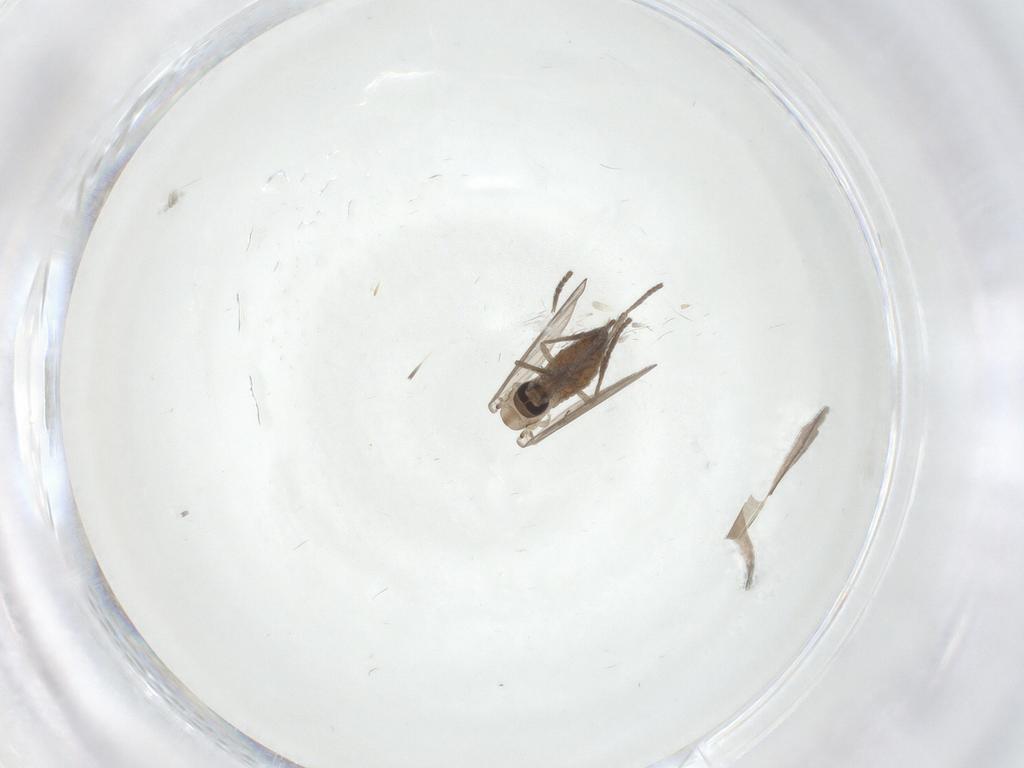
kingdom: Animalia
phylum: Arthropoda
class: Insecta
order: Diptera
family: Psychodidae
